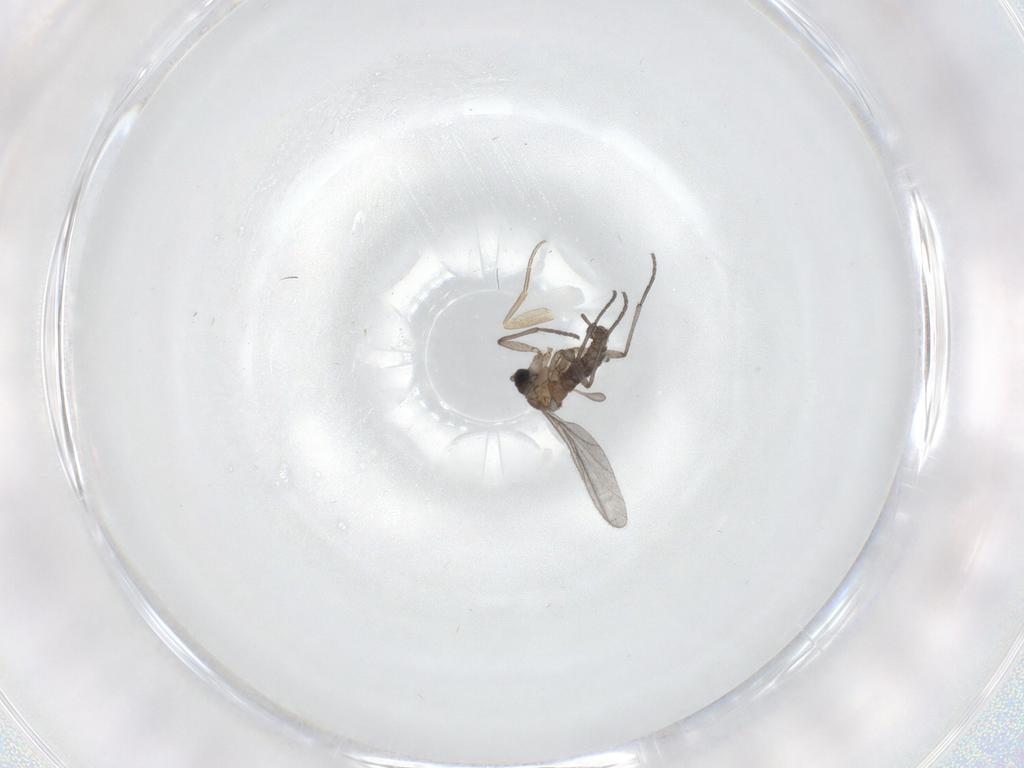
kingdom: Animalia
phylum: Arthropoda
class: Insecta
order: Diptera
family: Sciaridae
